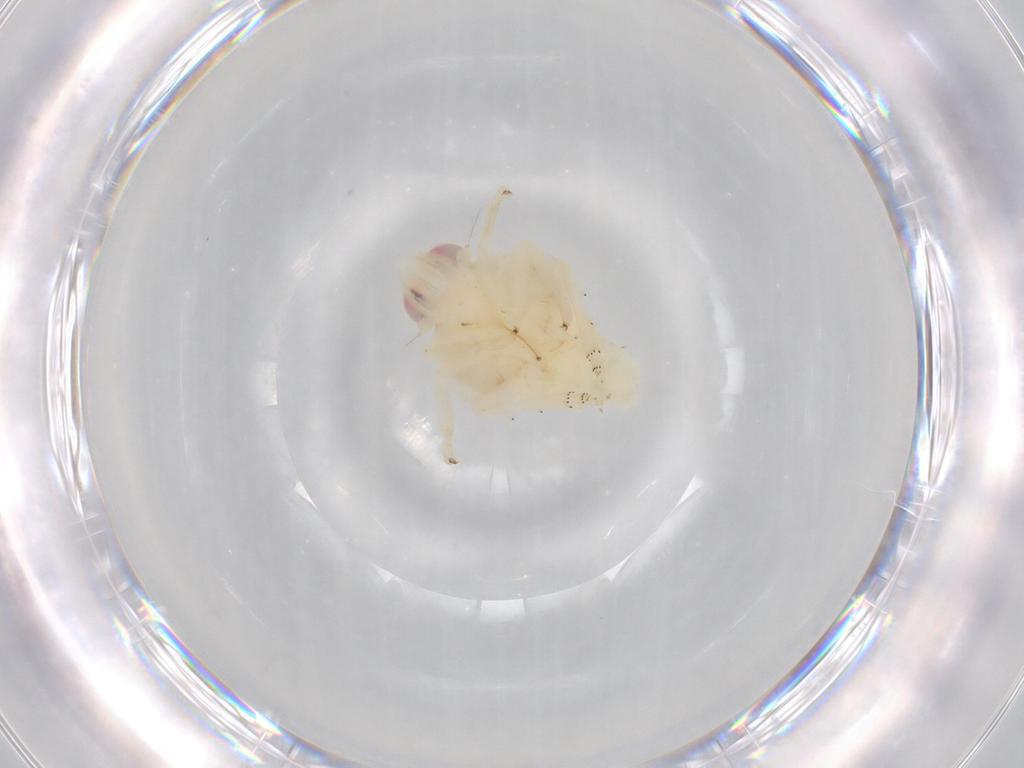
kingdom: Animalia
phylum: Arthropoda
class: Insecta
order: Hemiptera
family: Nogodinidae
